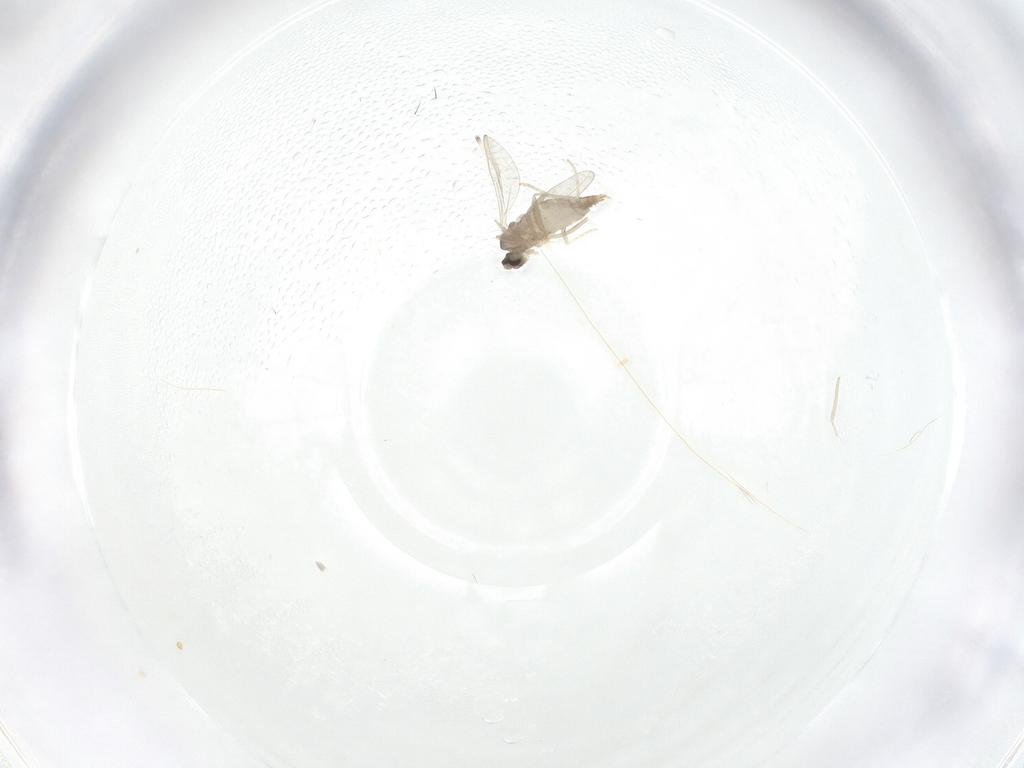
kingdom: Animalia
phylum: Arthropoda
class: Insecta
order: Diptera
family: Cecidomyiidae
